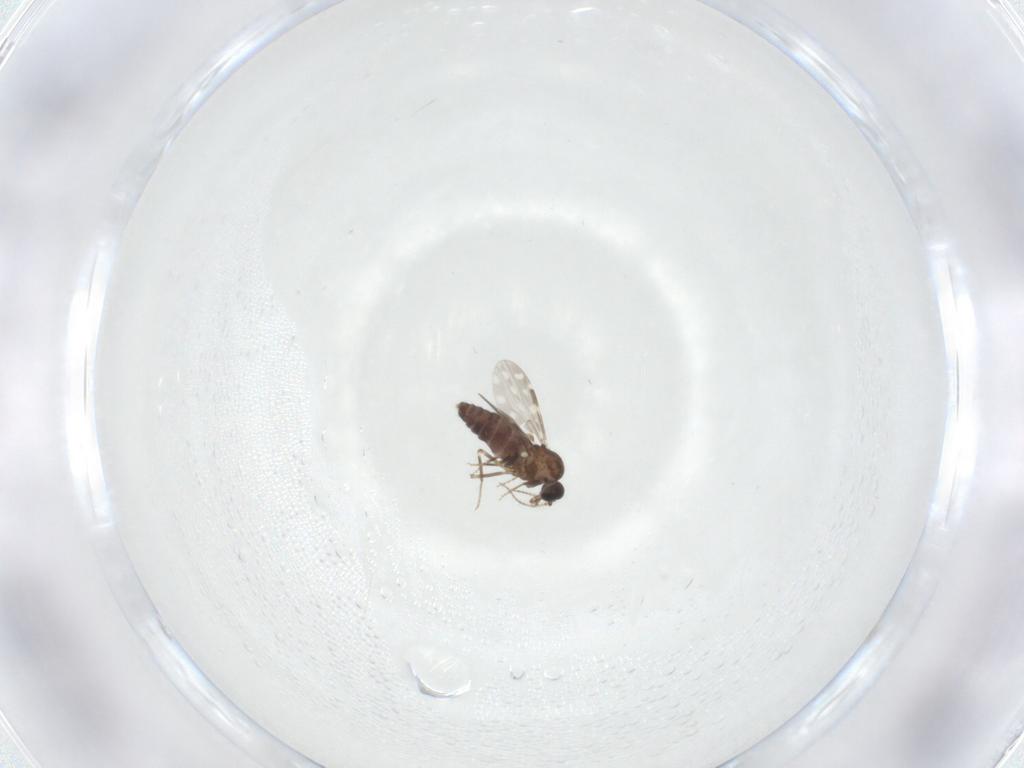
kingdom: Animalia
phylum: Arthropoda
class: Insecta
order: Diptera
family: Ceratopogonidae
